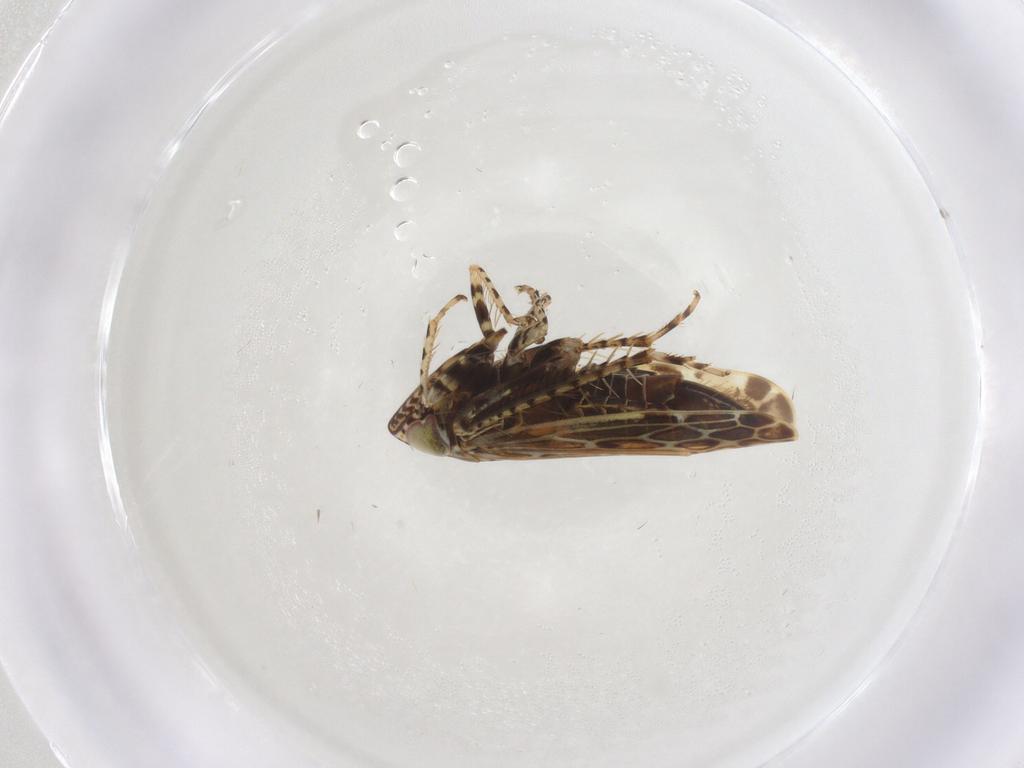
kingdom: Animalia
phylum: Arthropoda
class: Insecta
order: Hemiptera
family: Cicadellidae
